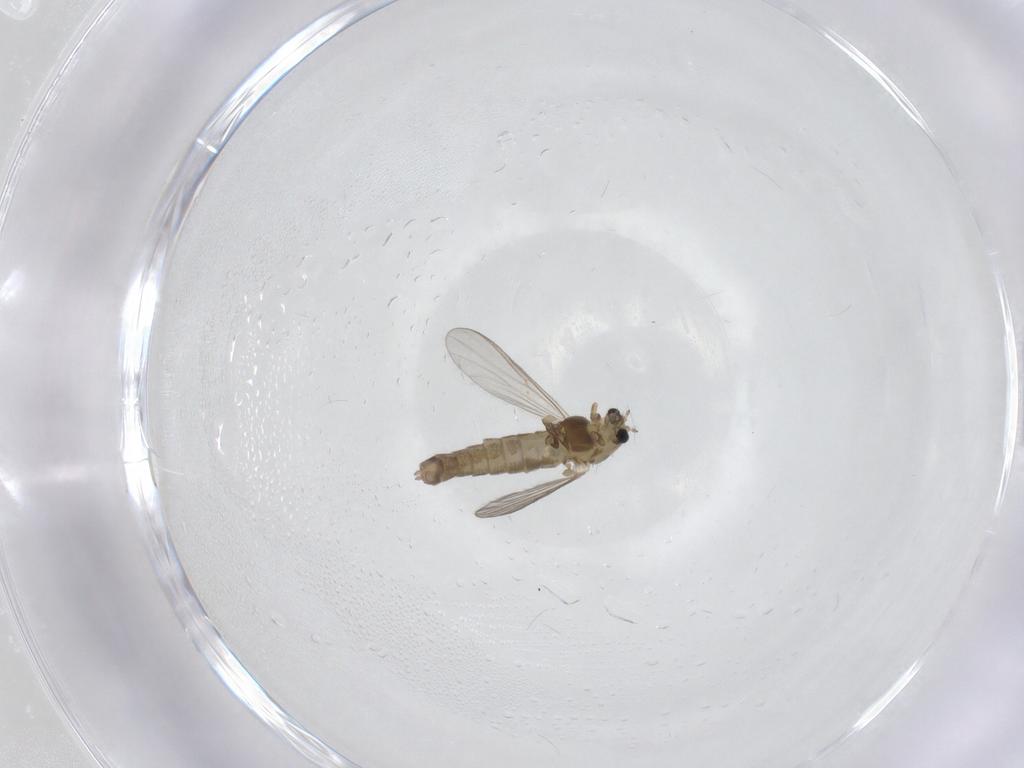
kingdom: Animalia
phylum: Arthropoda
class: Insecta
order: Diptera
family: Chironomidae
